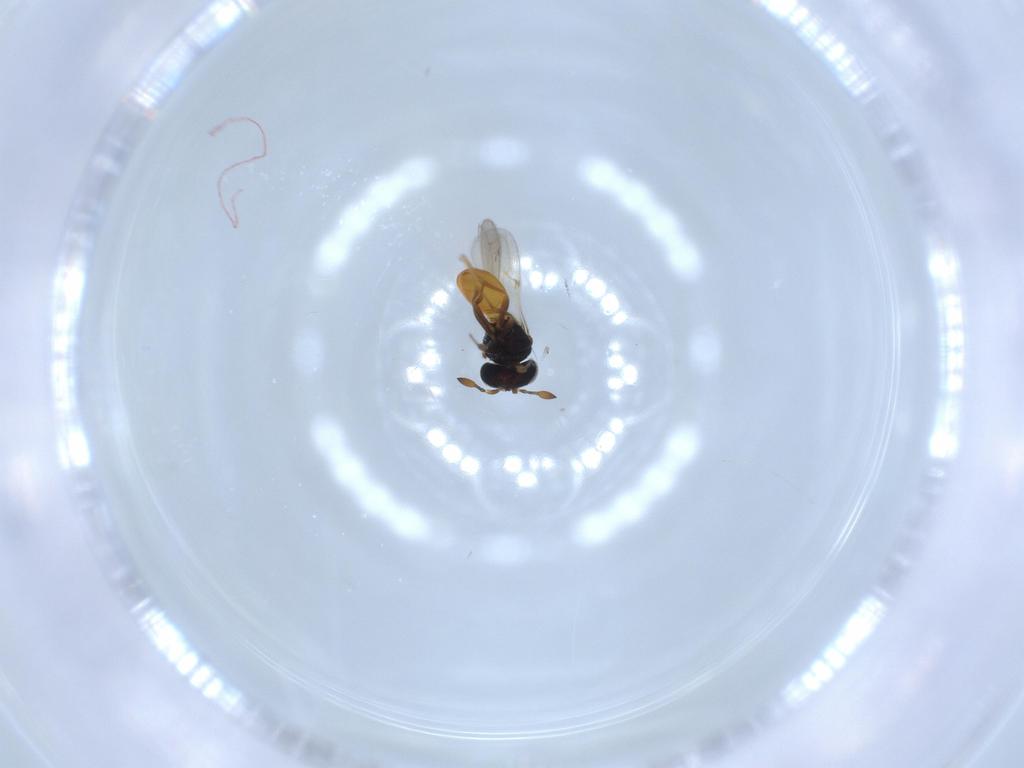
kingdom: Animalia
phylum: Arthropoda
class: Insecta
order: Hymenoptera
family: Scelionidae
